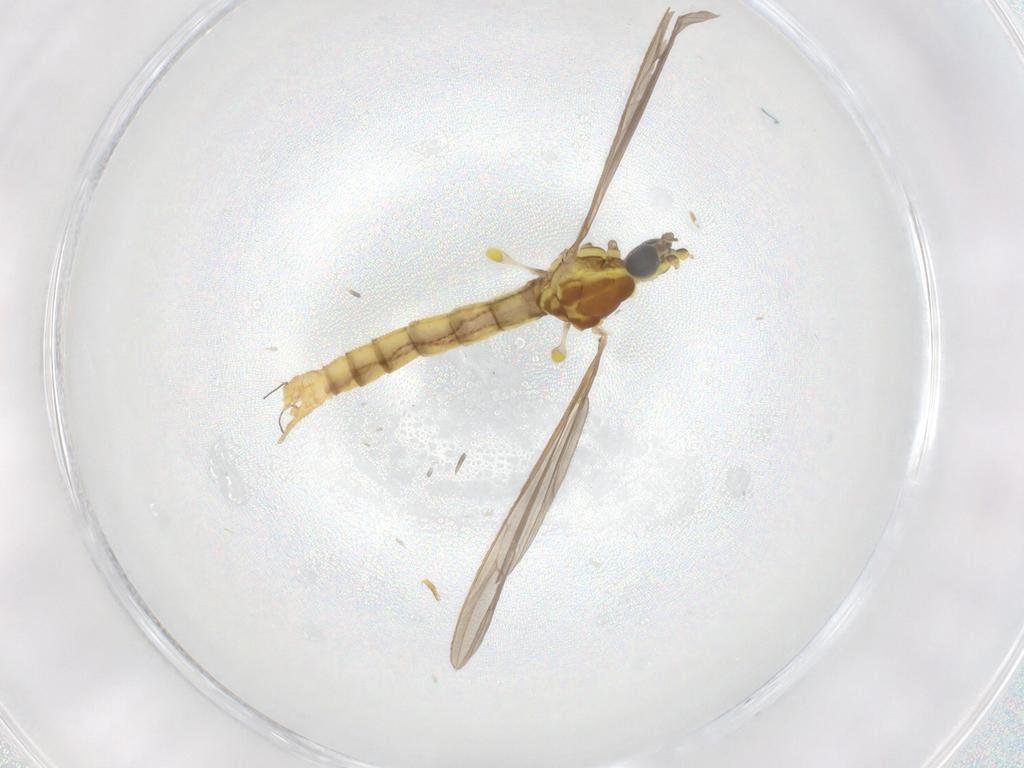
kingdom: Animalia
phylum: Arthropoda
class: Insecta
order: Diptera
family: Limoniidae
